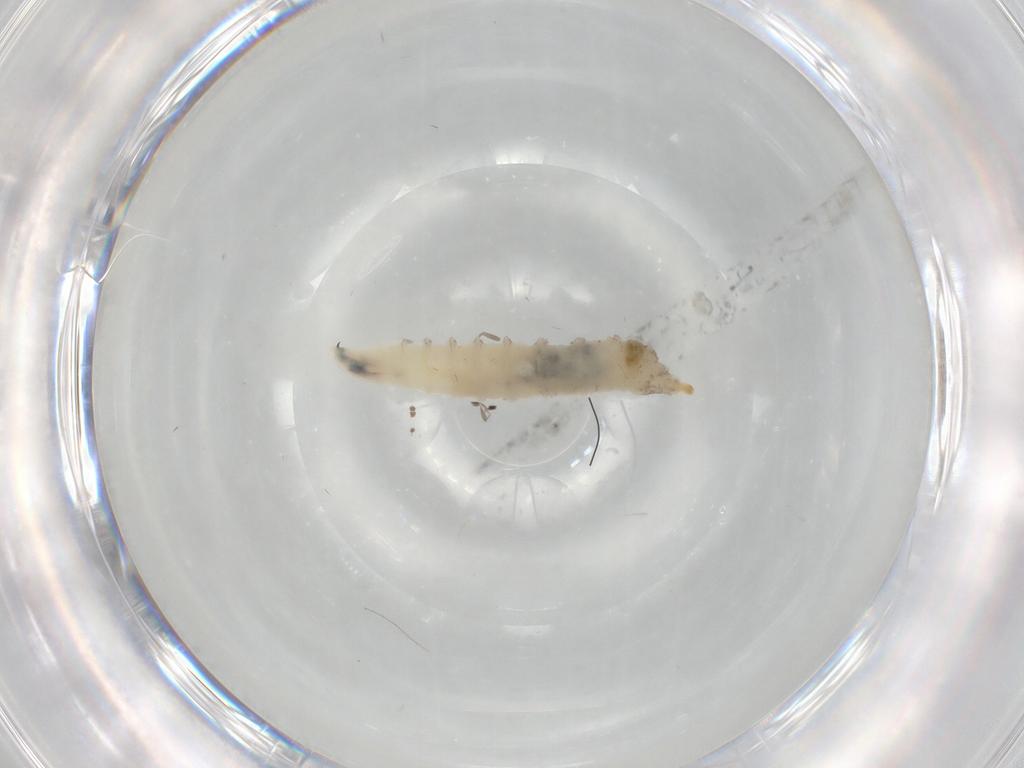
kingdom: Animalia
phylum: Arthropoda
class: Insecta
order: Diptera
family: Drosophilidae
